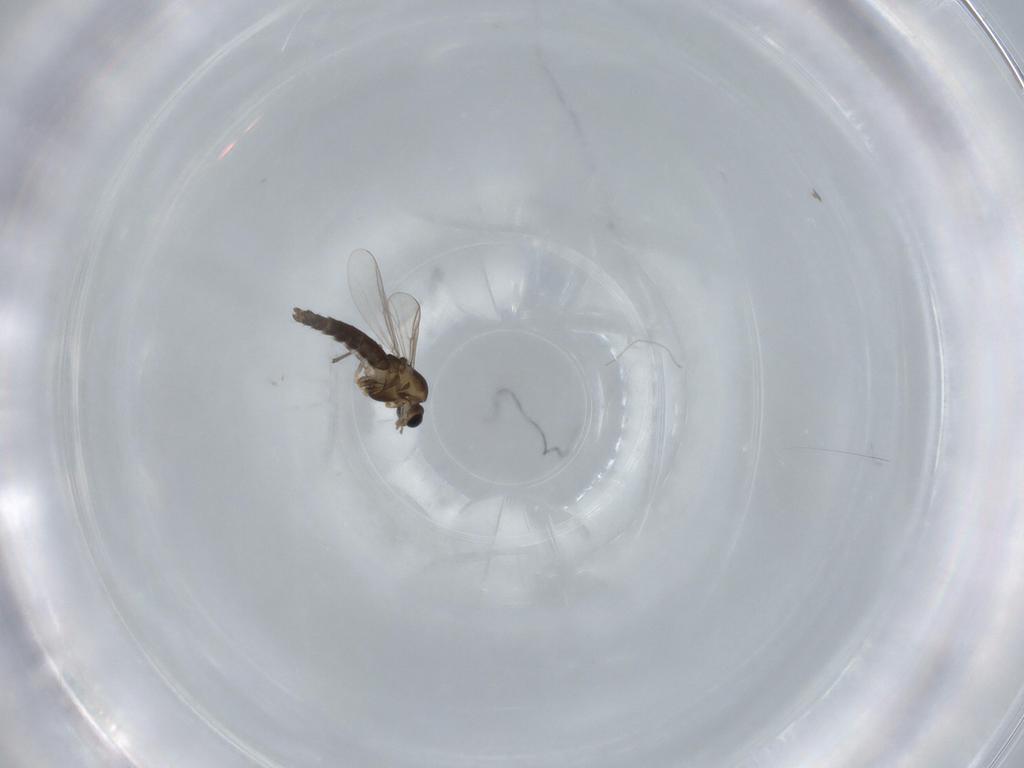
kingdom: Animalia
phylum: Arthropoda
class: Insecta
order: Diptera
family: Chironomidae
